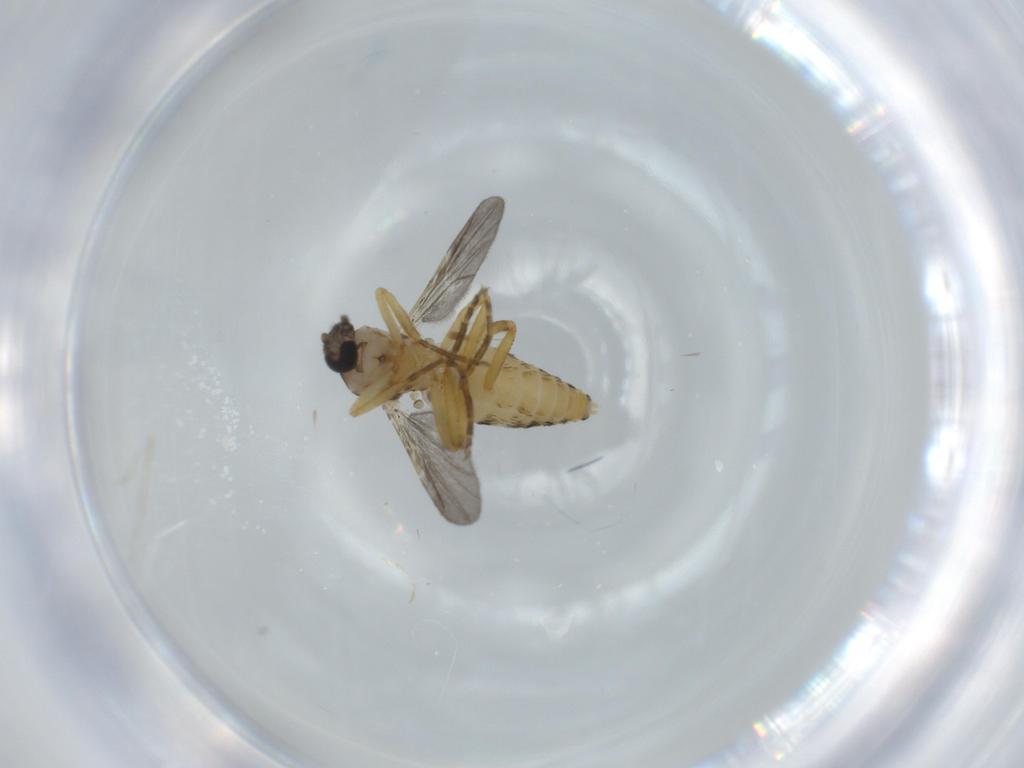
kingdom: Animalia
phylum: Arthropoda
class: Insecta
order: Diptera
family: Ceratopogonidae
